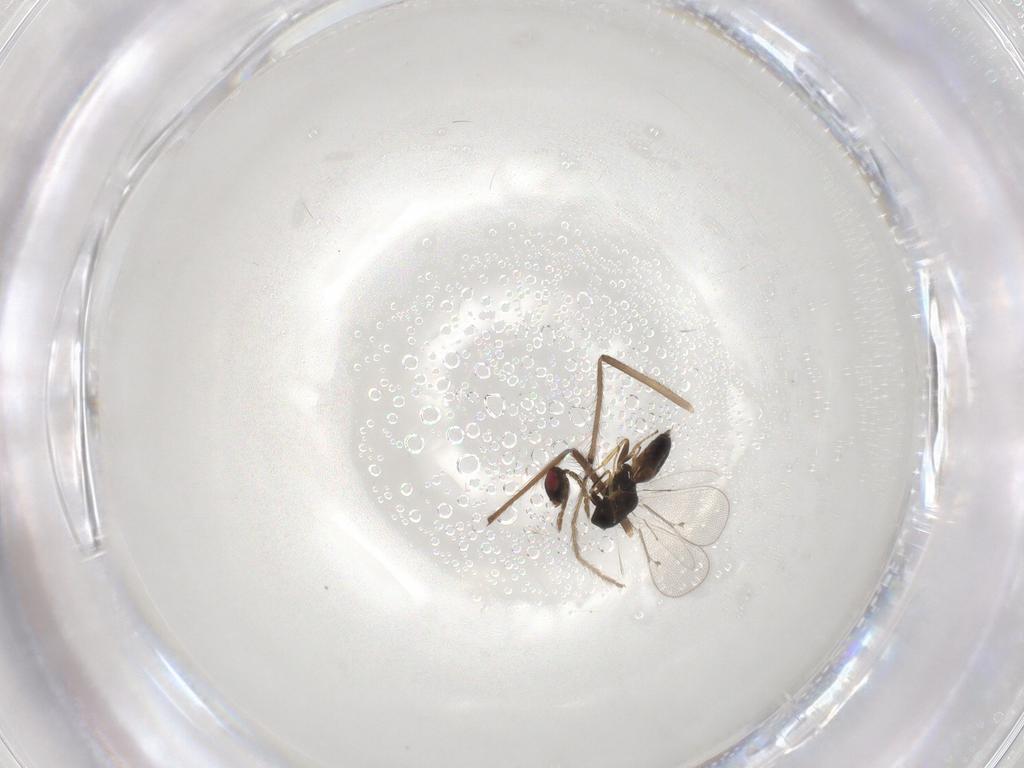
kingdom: Animalia
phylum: Arthropoda
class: Insecta
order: Hymenoptera
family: Eulophidae
